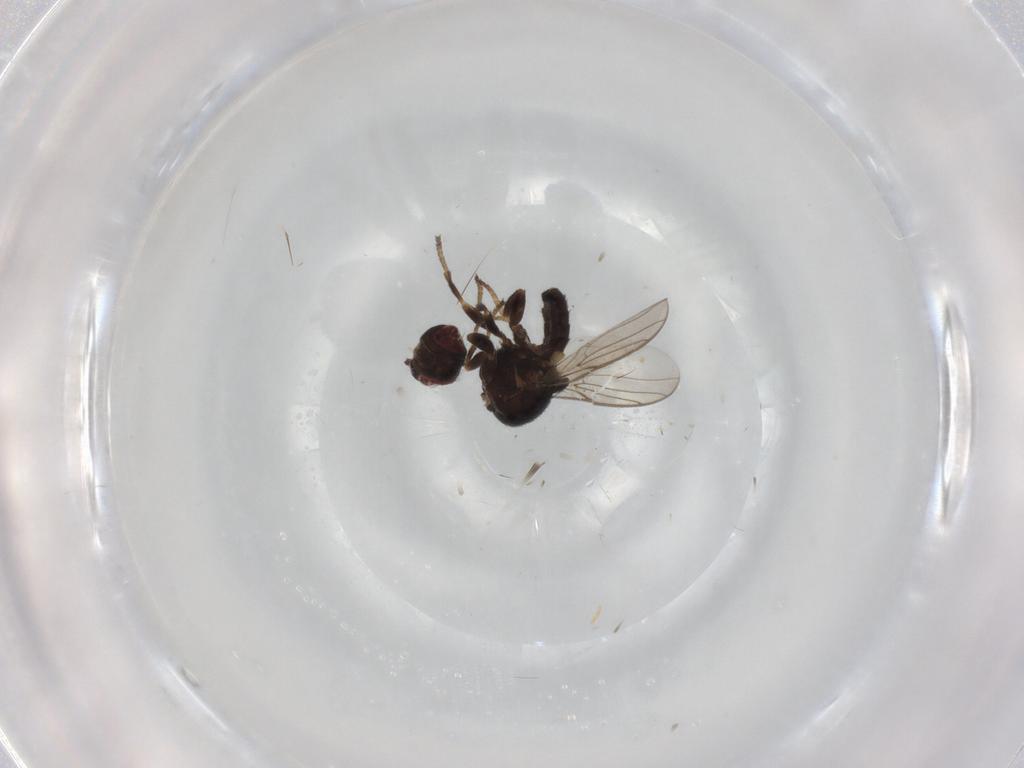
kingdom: Animalia
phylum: Arthropoda
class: Insecta
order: Diptera
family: Chloropidae
